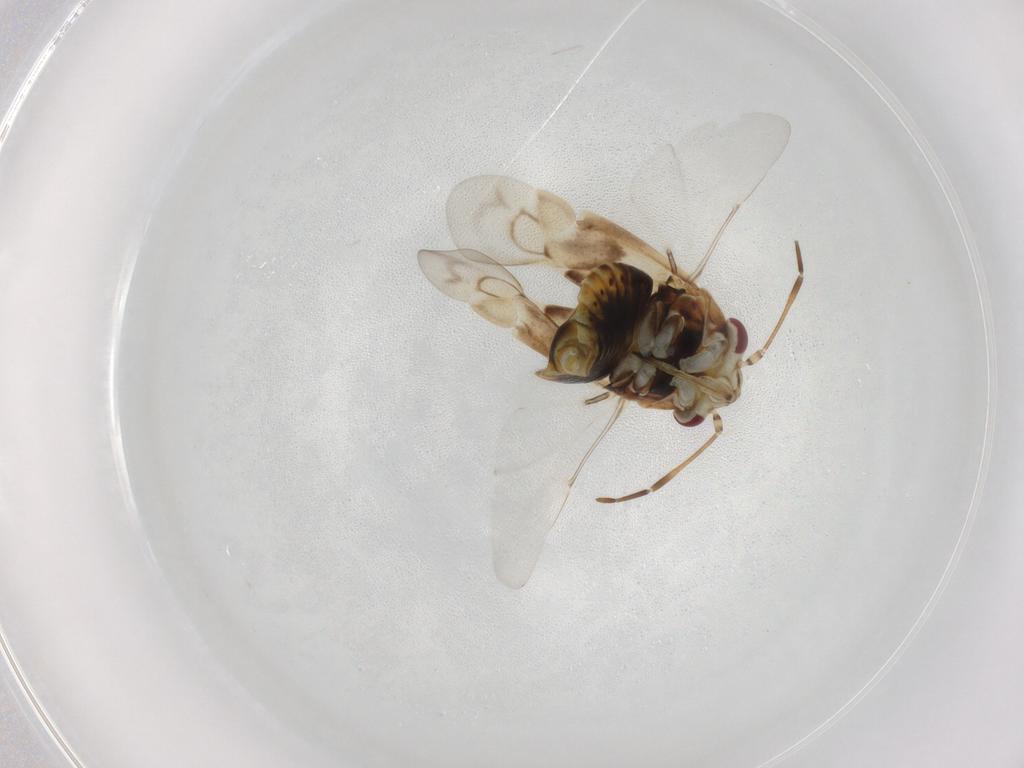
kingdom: Animalia
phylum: Arthropoda
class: Insecta
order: Hemiptera
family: Miridae
